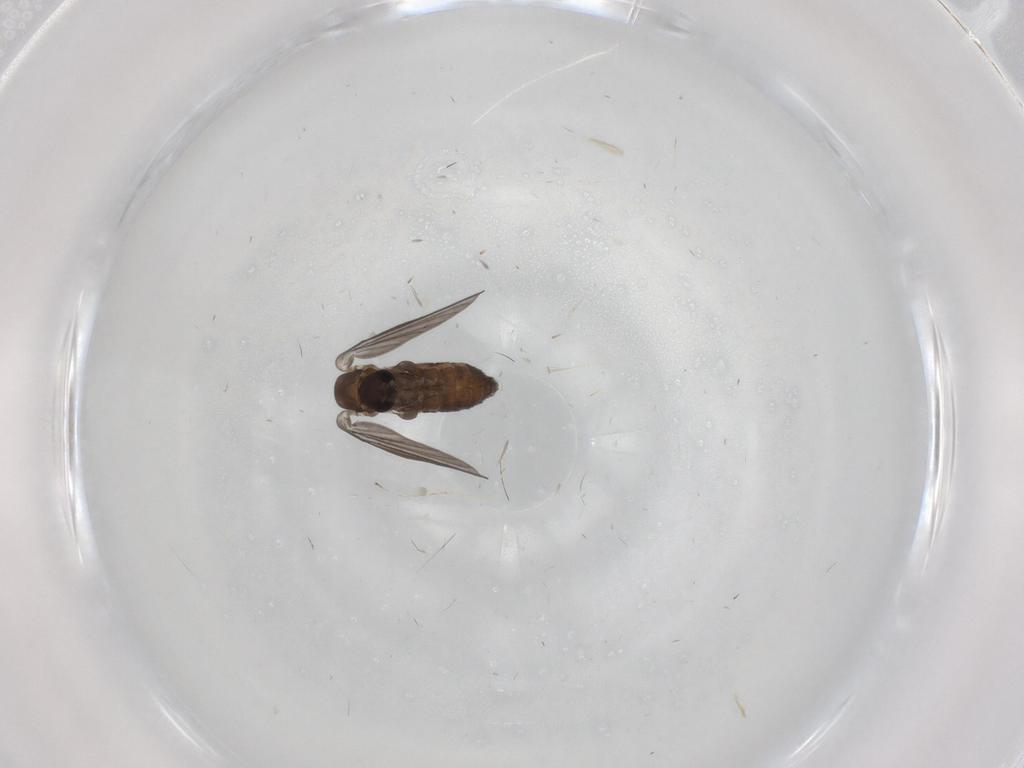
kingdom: Animalia
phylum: Arthropoda
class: Insecta
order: Diptera
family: Psychodidae
